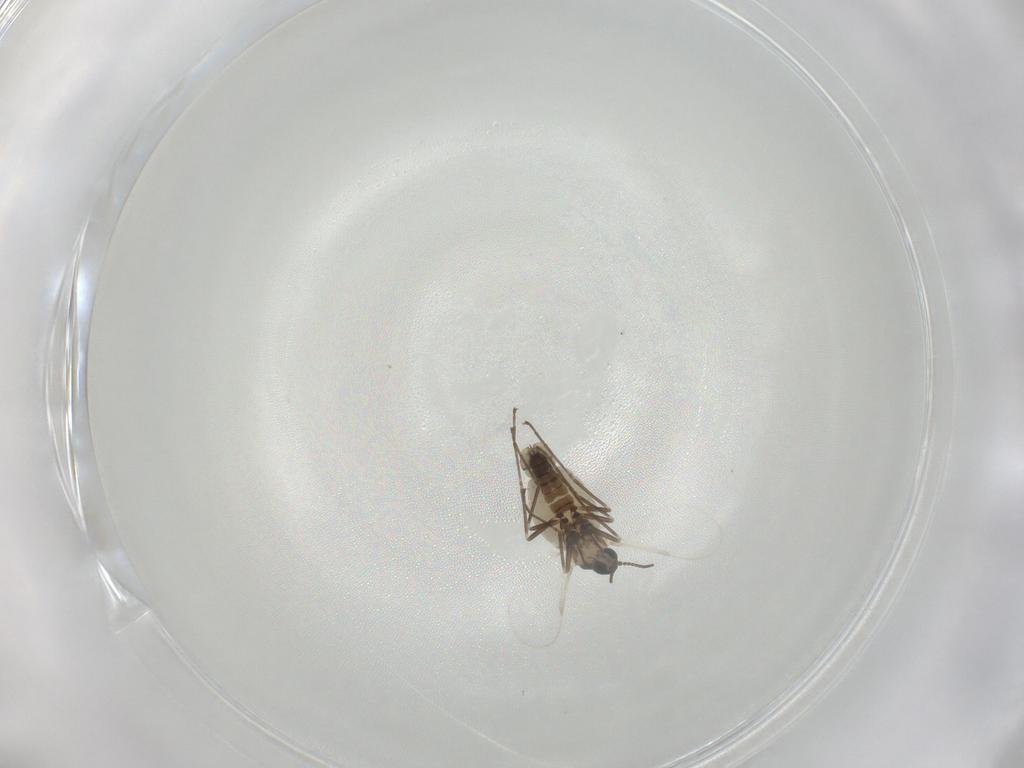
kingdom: Animalia
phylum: Arthropoda
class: Insecta
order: Diptera
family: Cecidomyiidae
